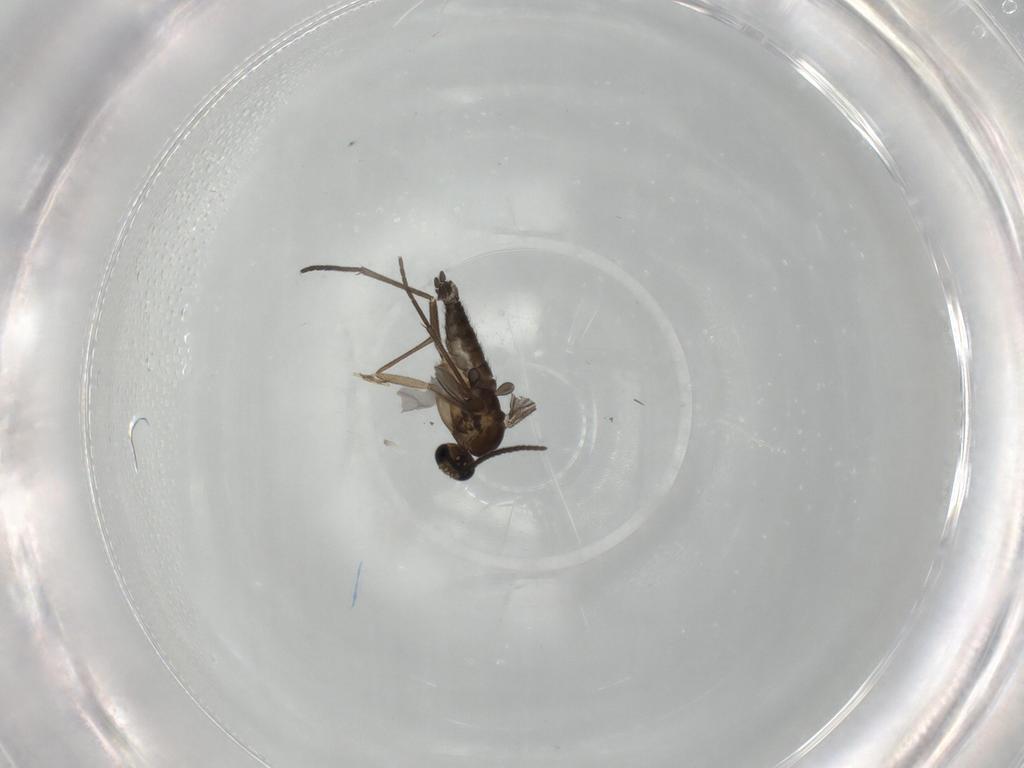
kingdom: Animalia
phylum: Arthropoda
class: Insecta
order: Diptera
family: Sciaridae
